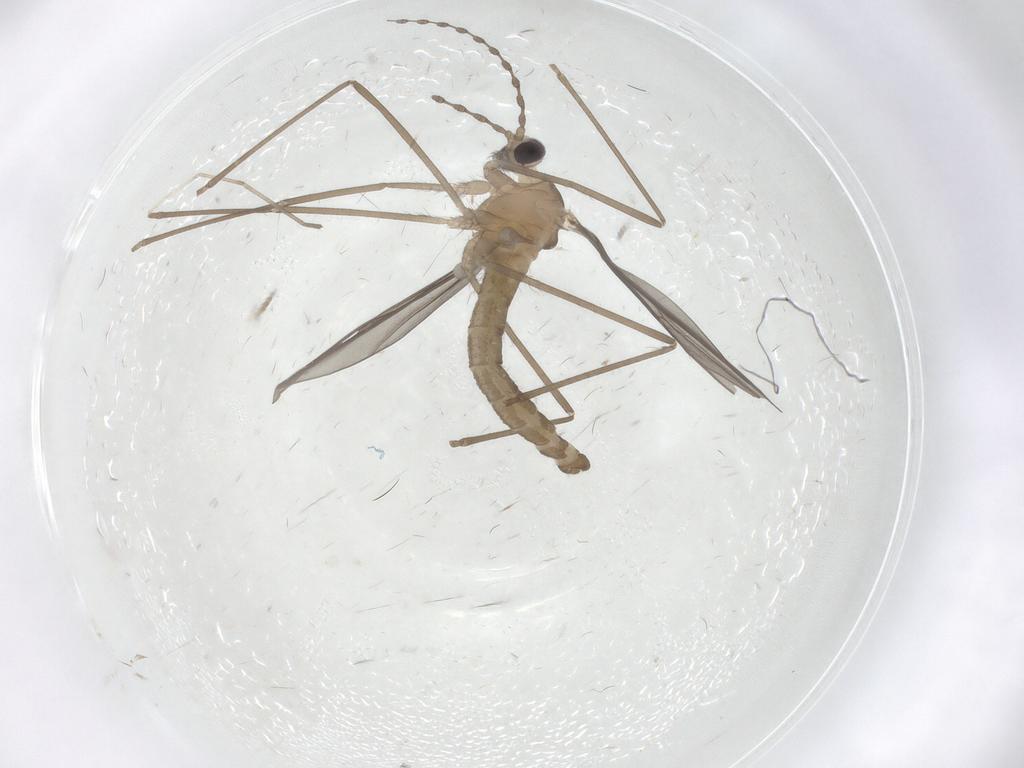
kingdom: Animalia
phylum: Arthropoda
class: Insecta
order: Diptera
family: Cecidomyiidae
